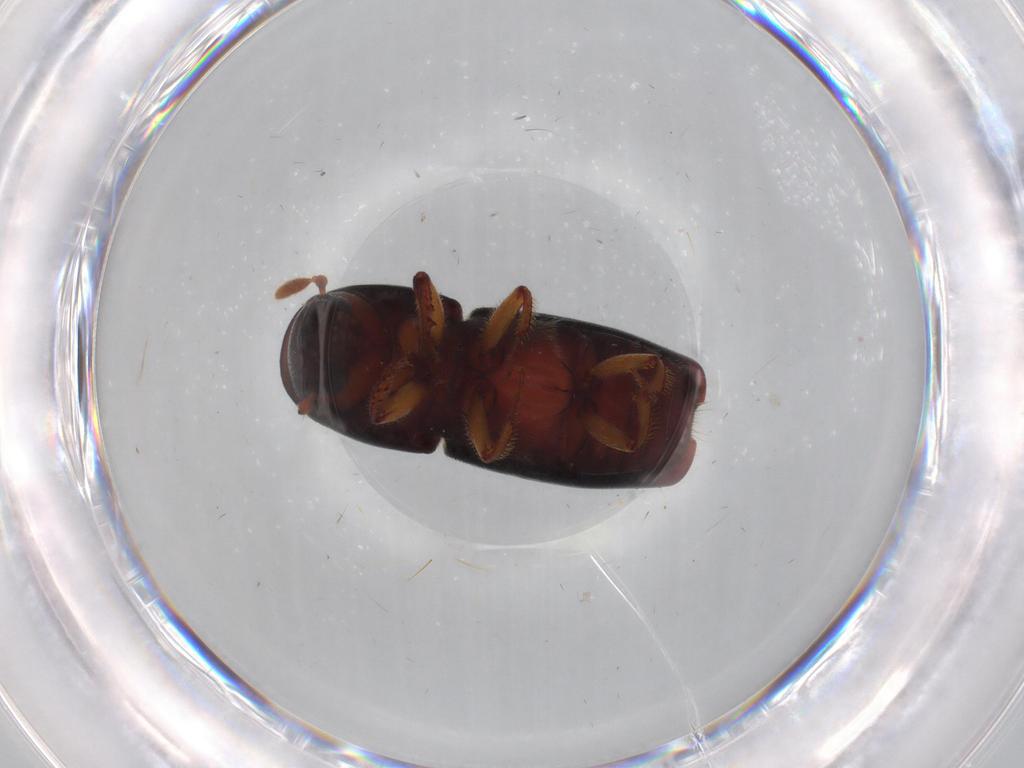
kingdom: Animalia
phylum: Arthropoda
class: Insecta
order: Coleoptera
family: Curculionidae
